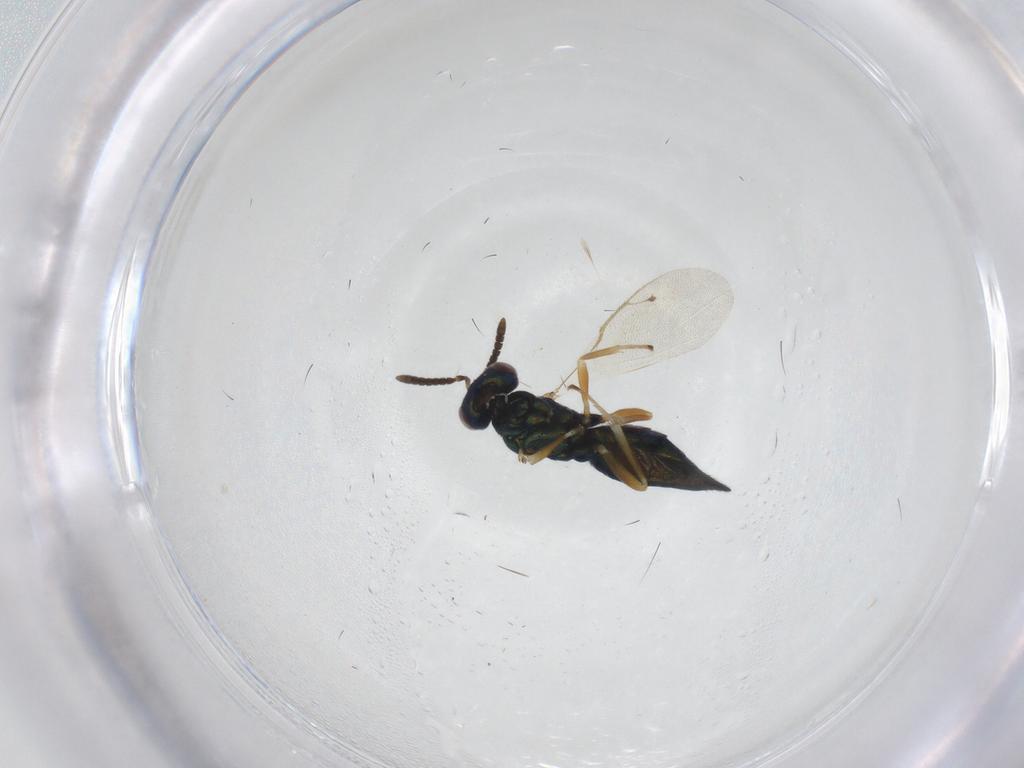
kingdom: Animalia
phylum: Arthropoda
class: Insecta
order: Hymenoptera
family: Pteromalidae
